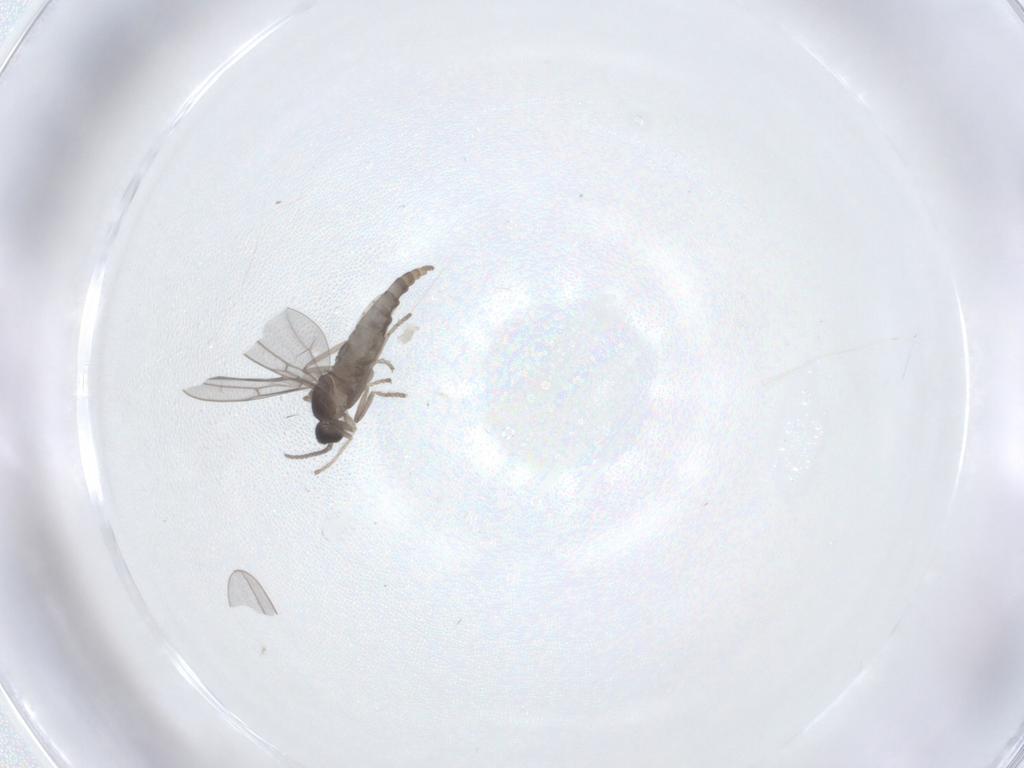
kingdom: Animalia
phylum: Arthropoda
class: Insecta
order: Diptera
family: Cecidomyiidae
